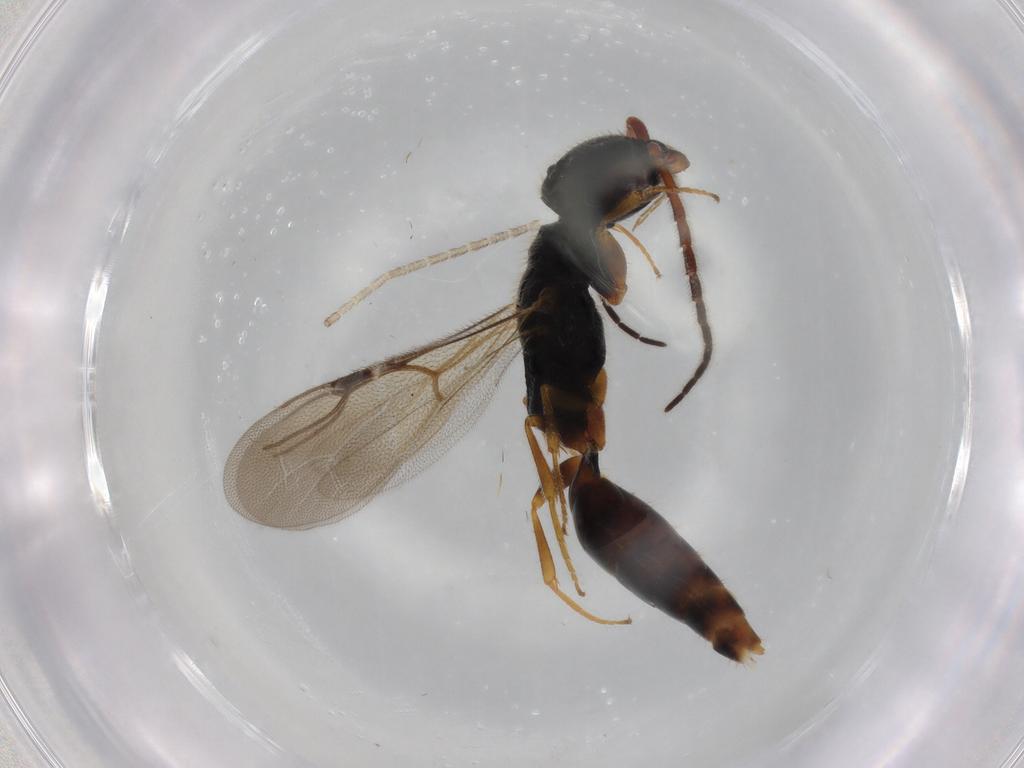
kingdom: Animalia
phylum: Arthropoda
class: Insecta
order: Hymenoptera
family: Bethylidae
